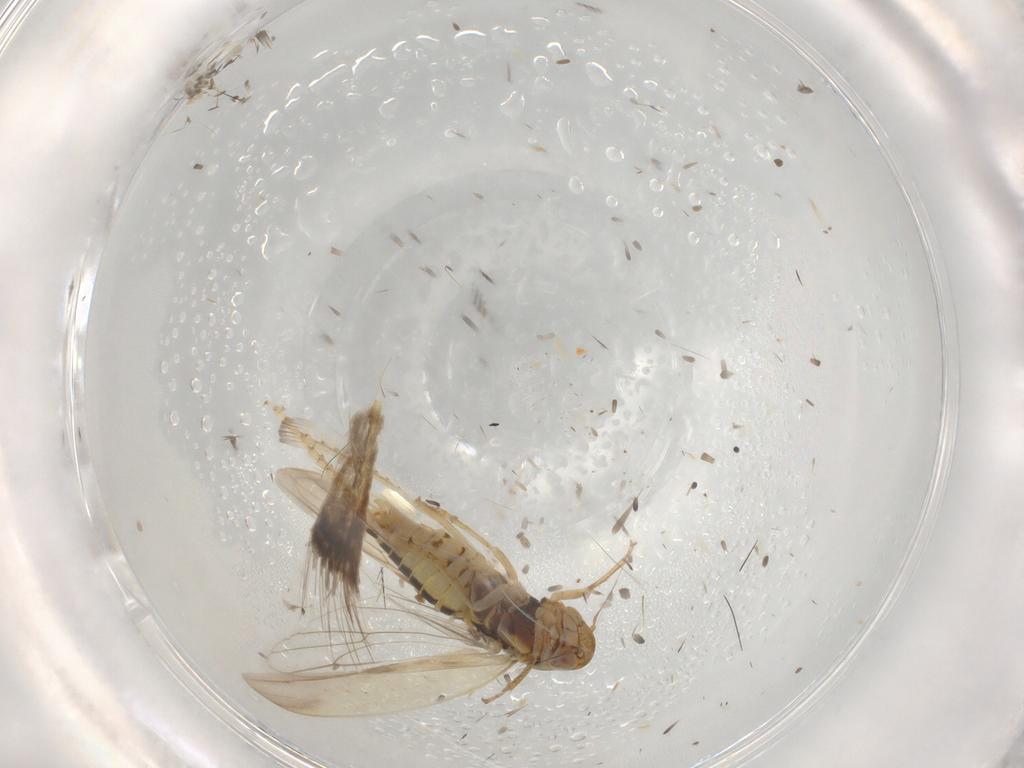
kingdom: Animalia
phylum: Arthropoda
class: Insecta
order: Hemiptera
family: Cicadellidae
